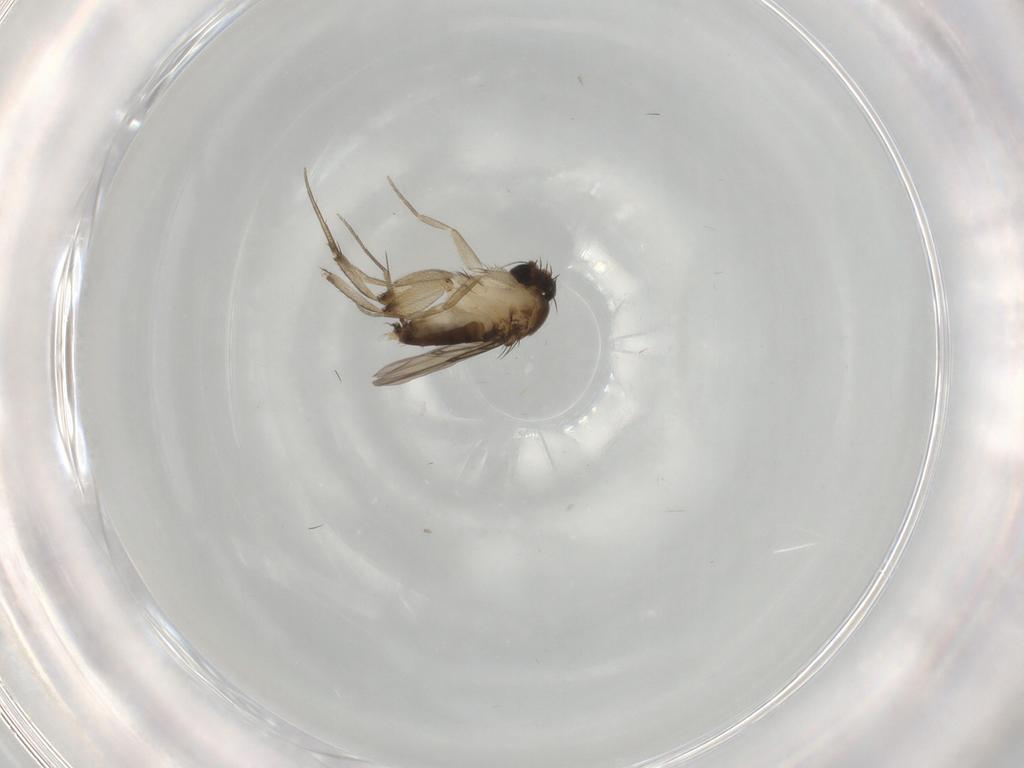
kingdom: Animalia
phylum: Arthropoda
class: Insecta
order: Diptera
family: Phoridae
